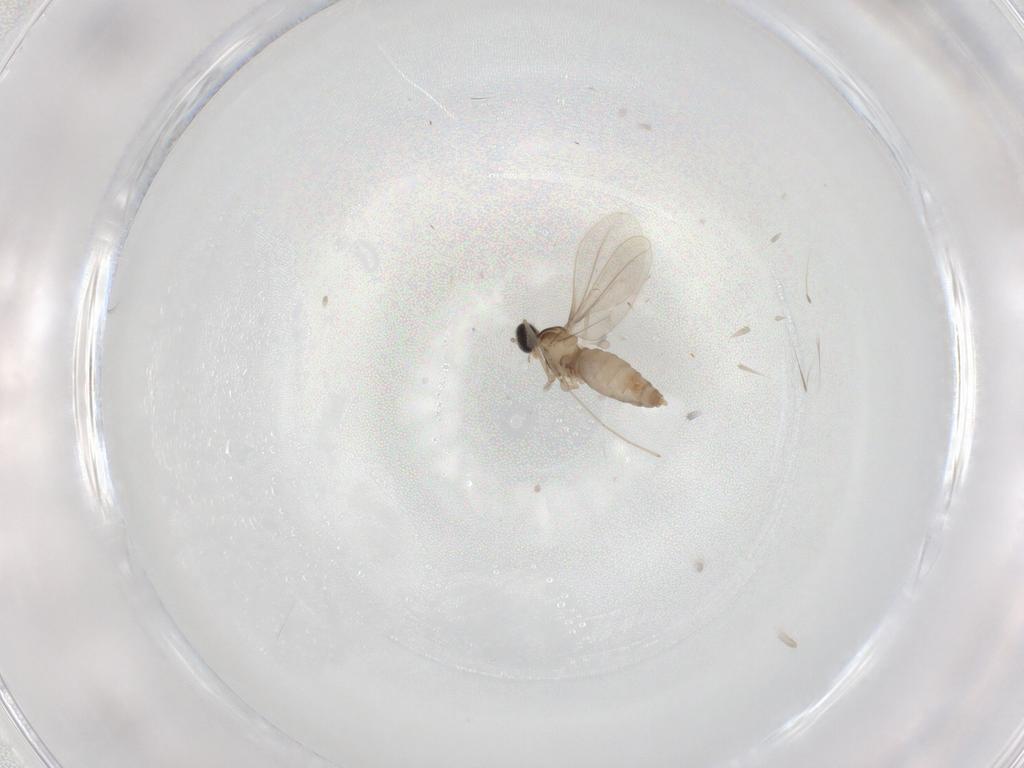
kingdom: Animalia
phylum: Arthropoda
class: Insecta
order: Diptera
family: Cecidomyiidae
